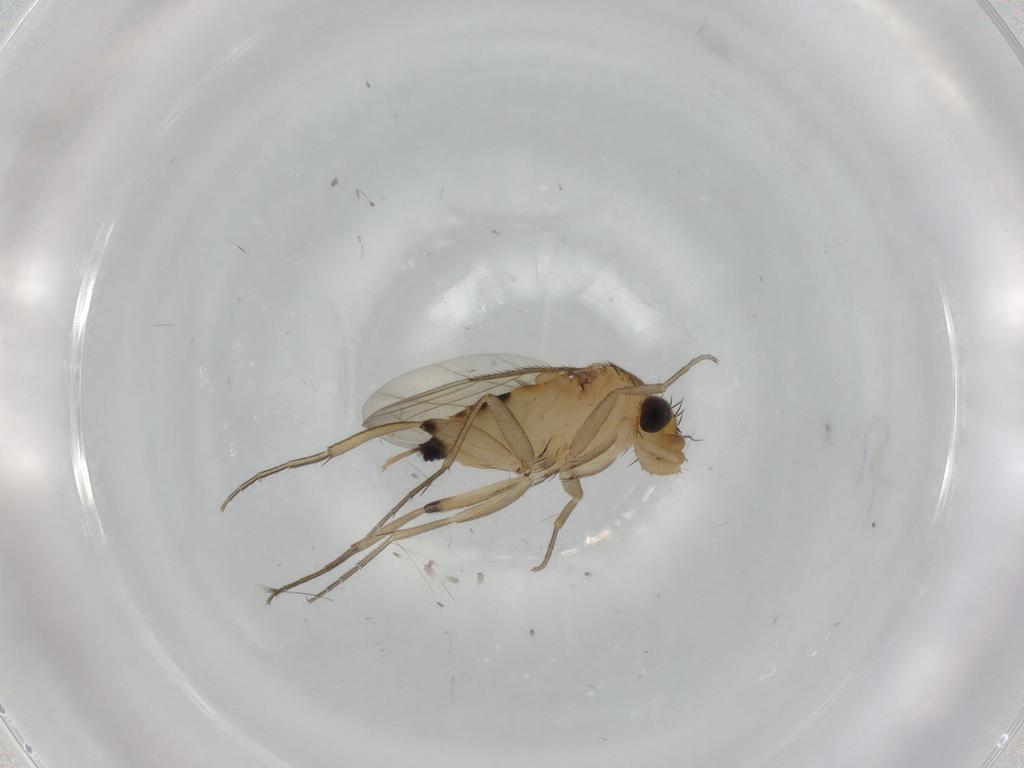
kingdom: Animalia
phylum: Arthropoda
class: Insecta
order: Diptera
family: Phoridae
